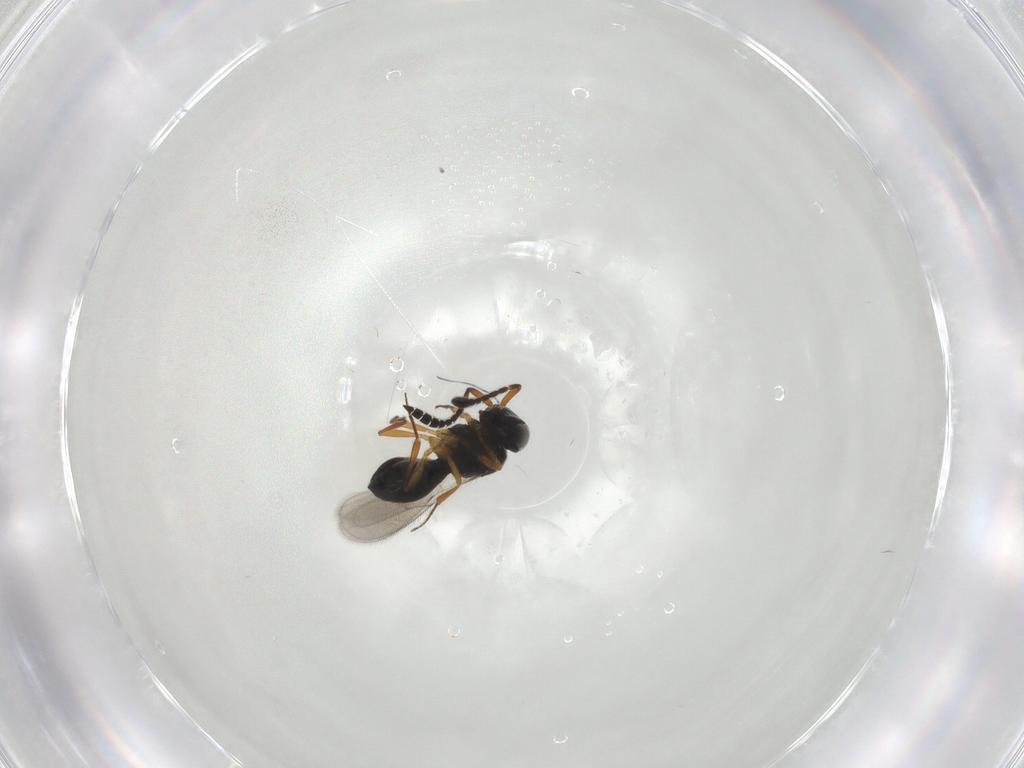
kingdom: Animalia
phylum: Arthropoda
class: Insecta
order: Hymenoptera
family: Scelionidae
